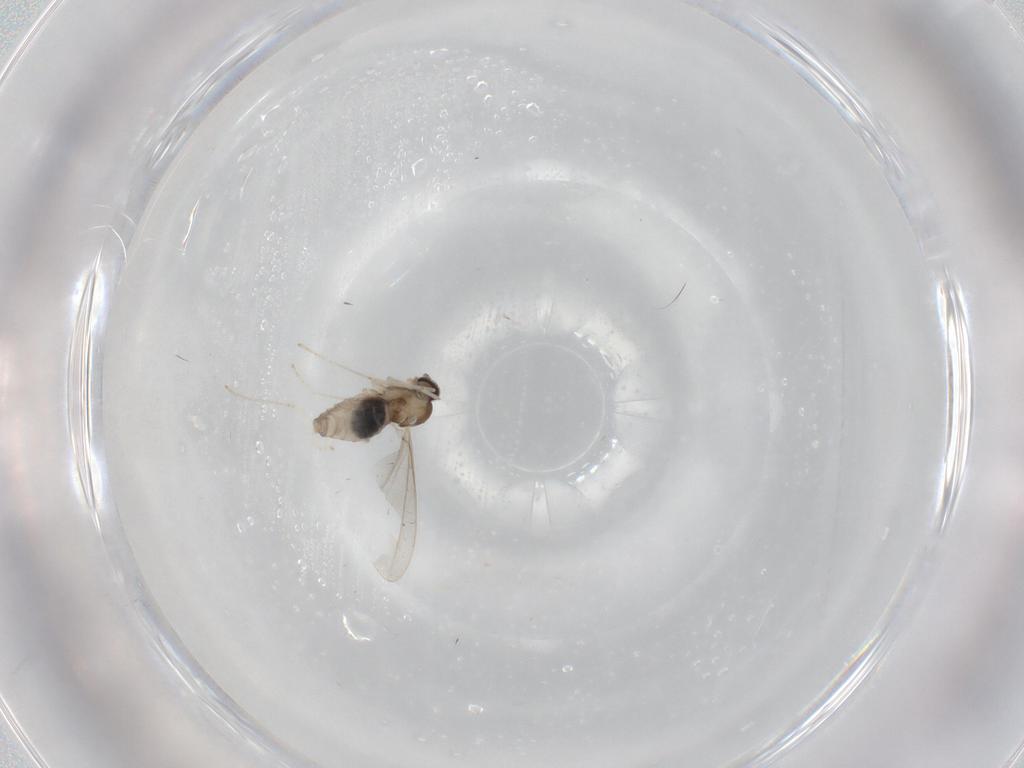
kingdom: Animalia
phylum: Arthropoda
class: Insecta
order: Diptera
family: Cecidomyiidae
